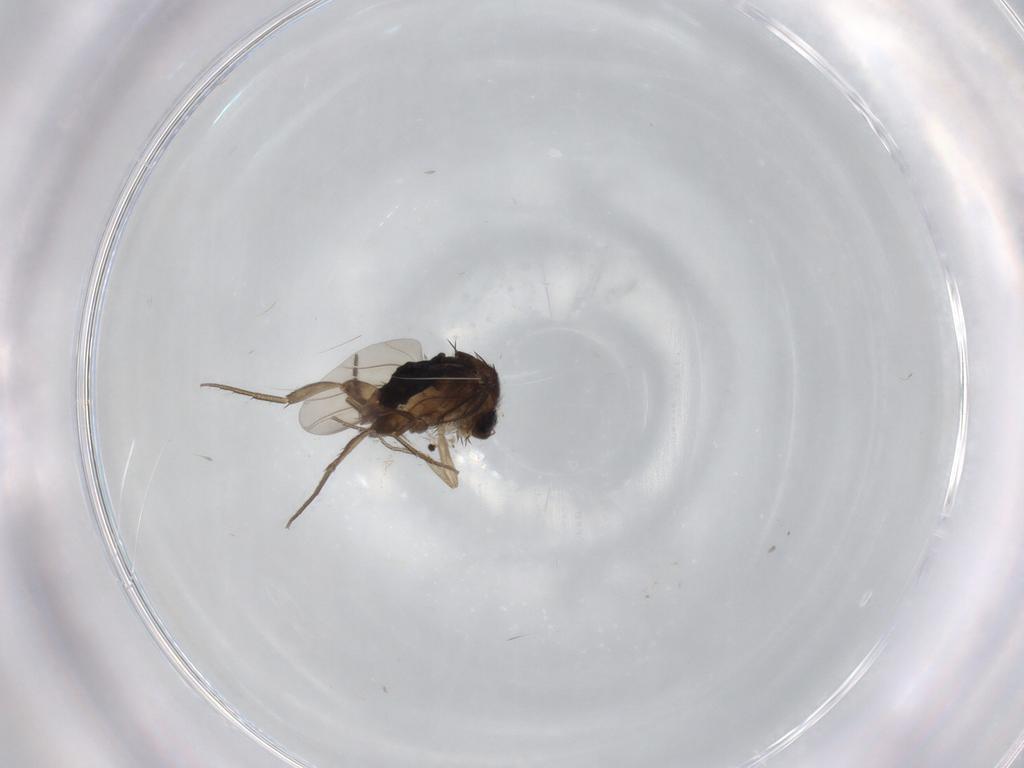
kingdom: Animalia
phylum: Arthropoda
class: Insecta
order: Diptera
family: Phoridae
